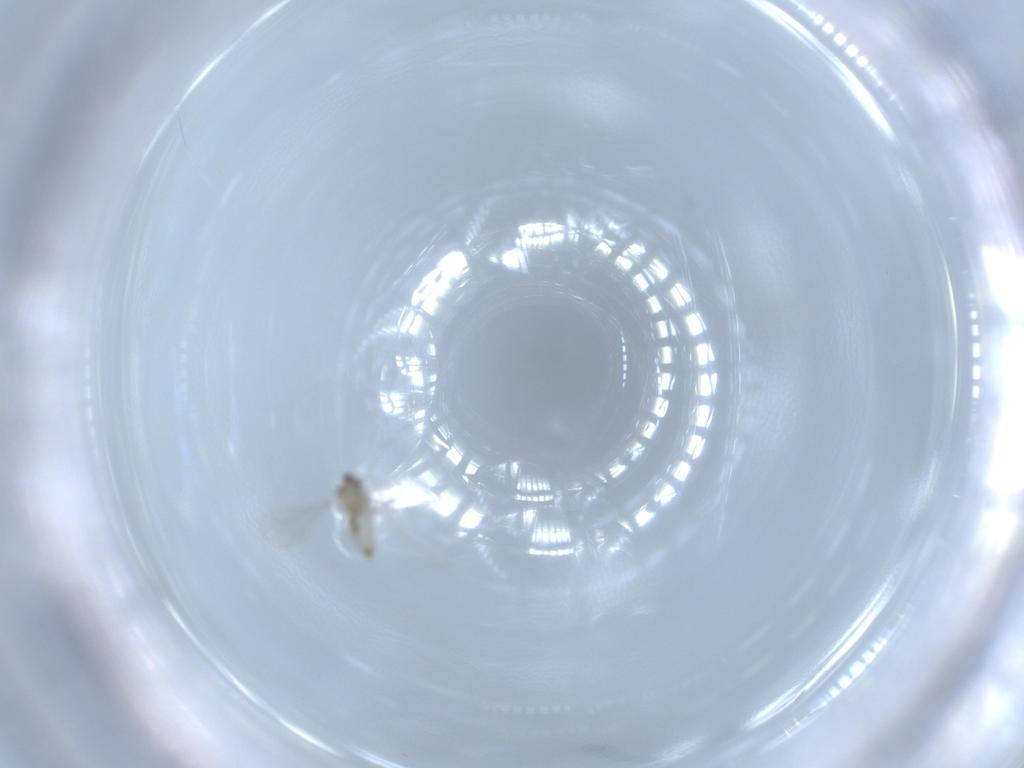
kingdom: Animalia
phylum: Arthropoda
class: Insecta
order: Diptera
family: Cecidomyiidae
